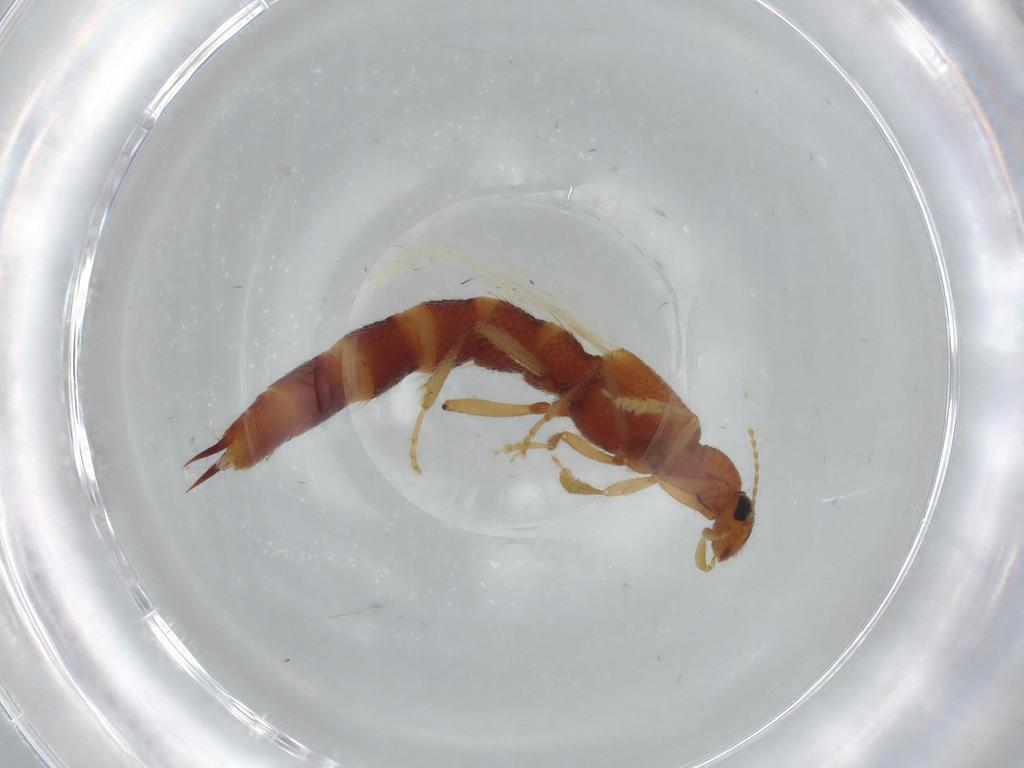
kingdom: Animalia
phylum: Arthropoda
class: Insecta
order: Coleoptera
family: Staphylinidae
